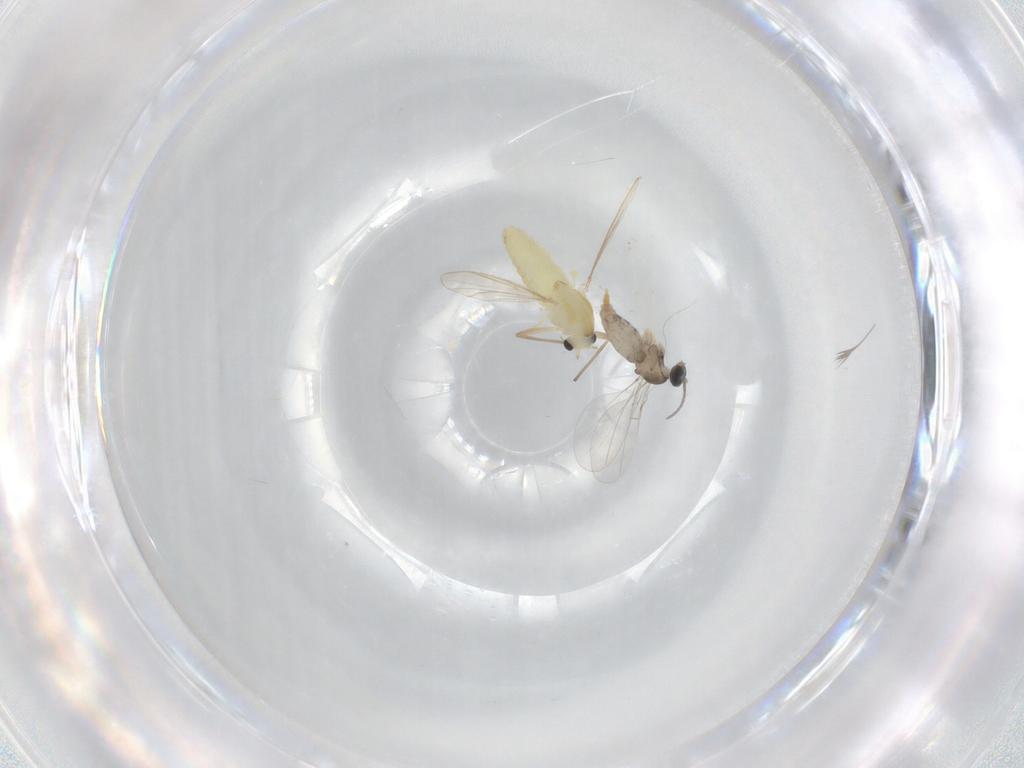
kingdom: Animalia
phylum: Arthropoda
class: Insecta
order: Diptera
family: Cecidomyiidae
